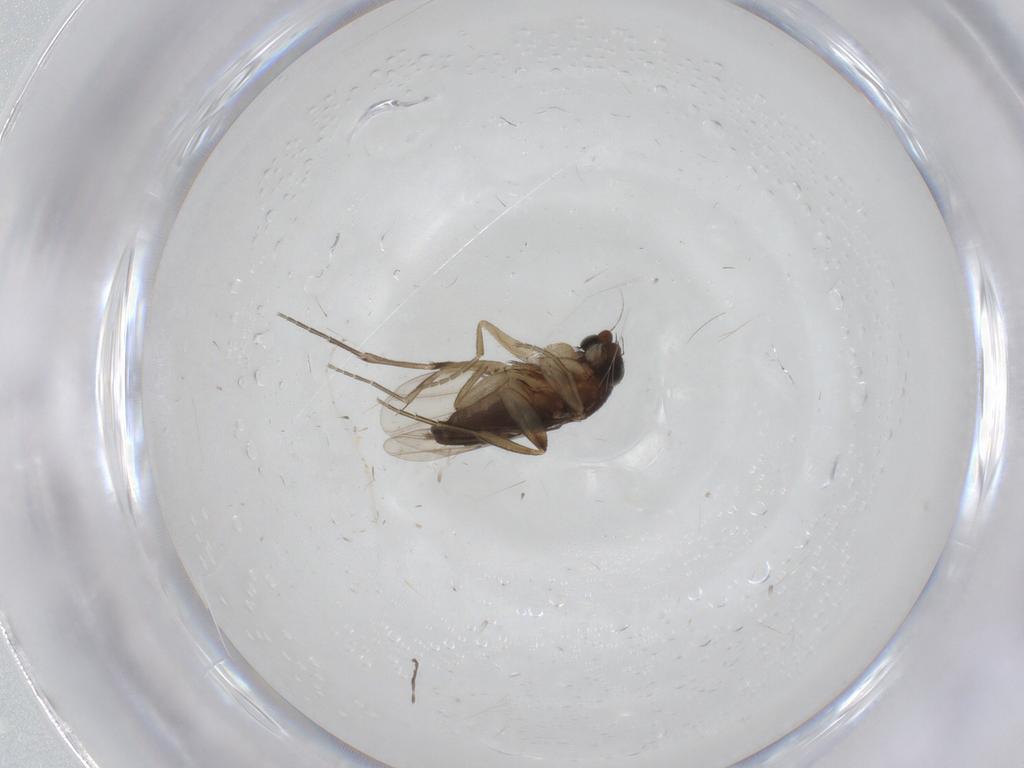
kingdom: Animalia
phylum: Arthropoda
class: Insecta
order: Diptera
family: Phoridae
